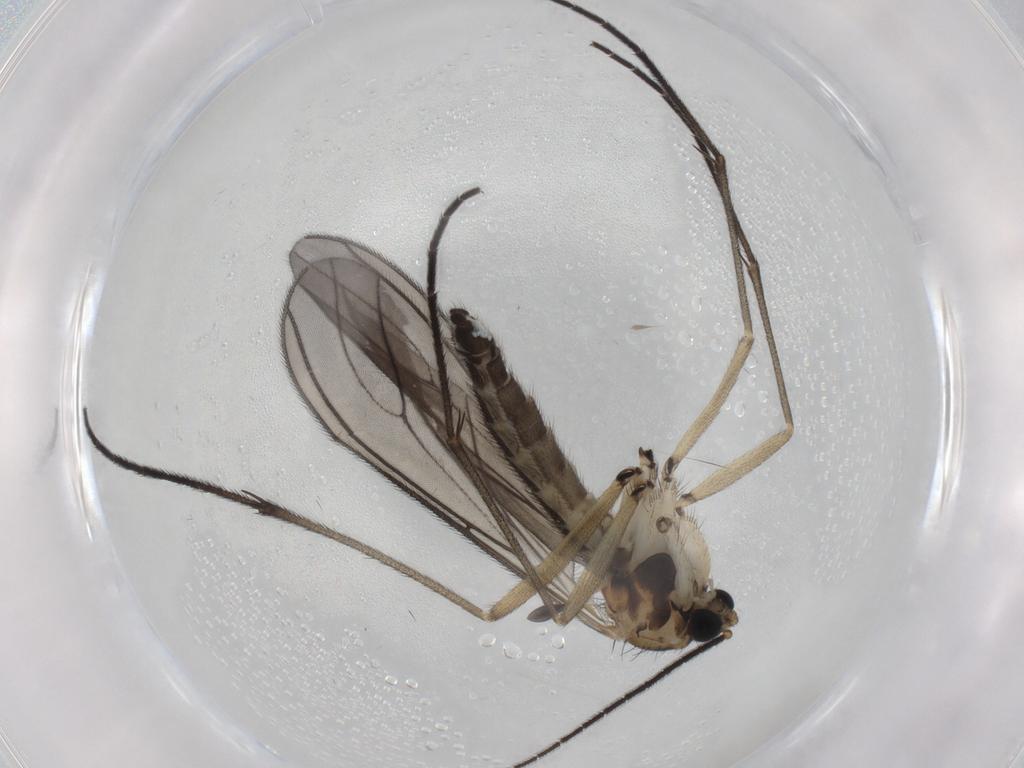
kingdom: Animalia
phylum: Arthropoda
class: Insecta
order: Diptera
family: Sciaridae
